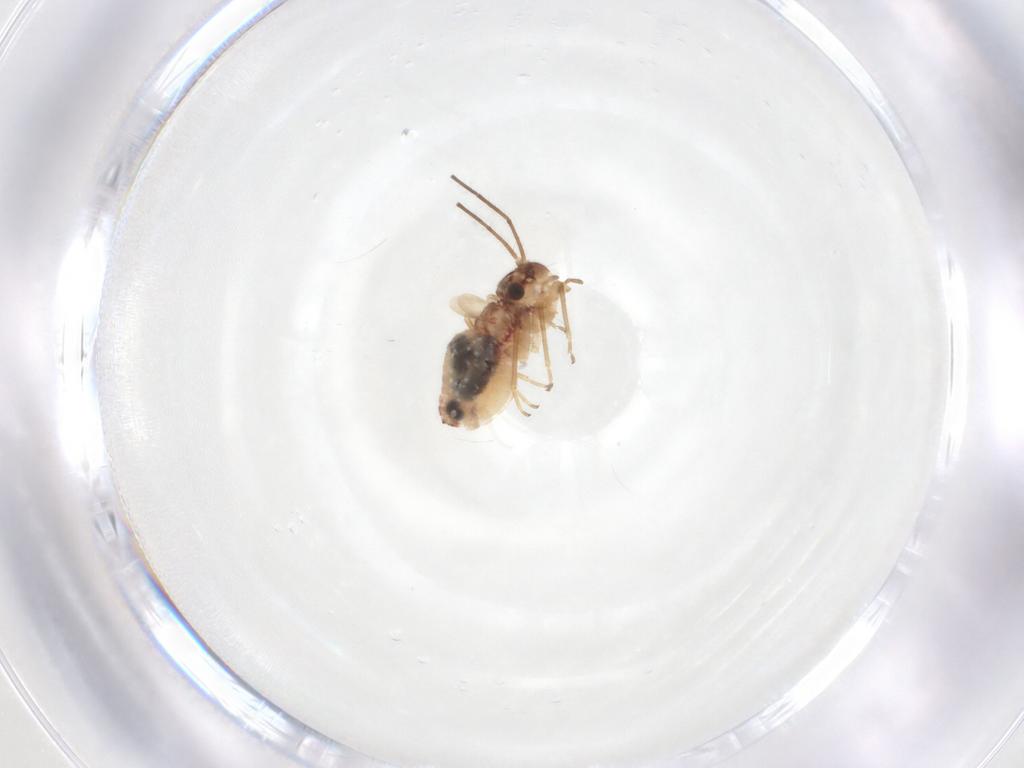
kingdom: Animalia
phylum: Arthropoda
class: Insecta
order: Psocodea
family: Caeciliusidae
